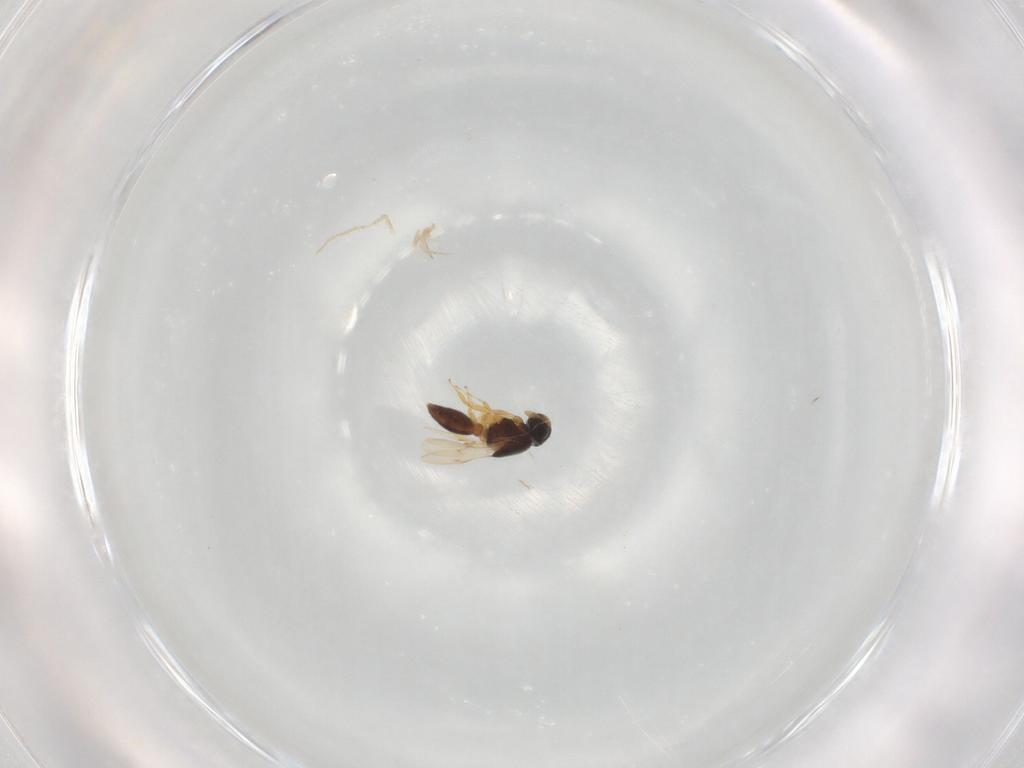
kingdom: Animalia
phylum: Arthropoda
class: Insecta
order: Hymenoptera
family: Scelionidae
